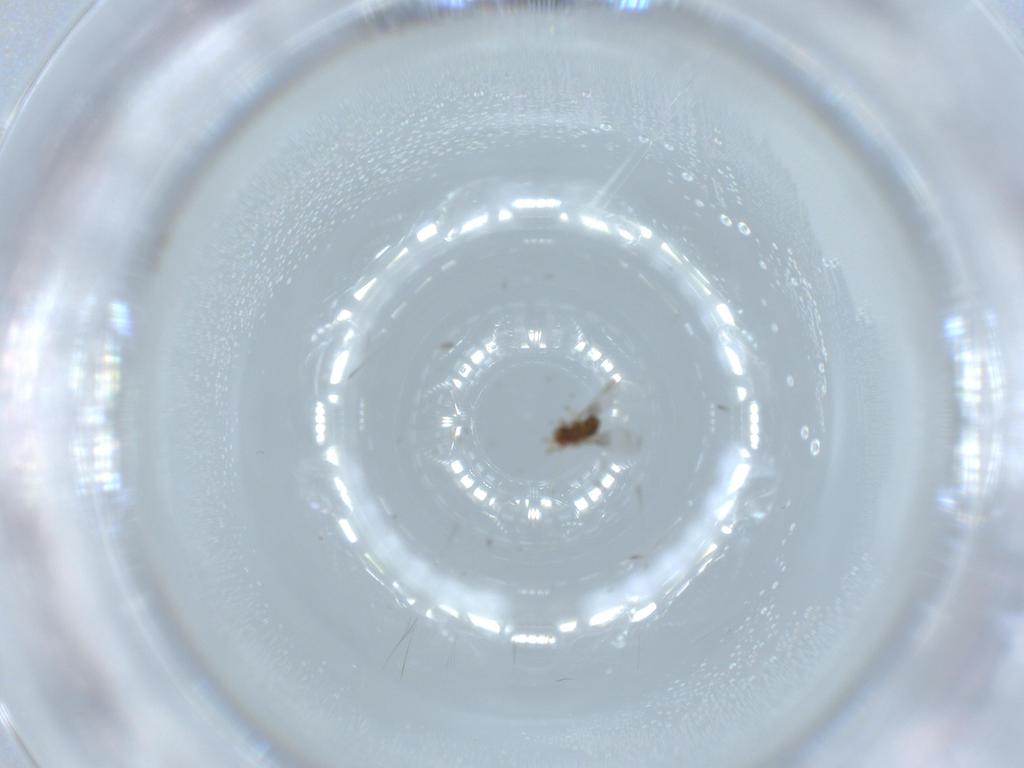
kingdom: Animalia
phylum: Arthropoda
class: Insecta
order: Hymenoptera
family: Trichogrammatidae
